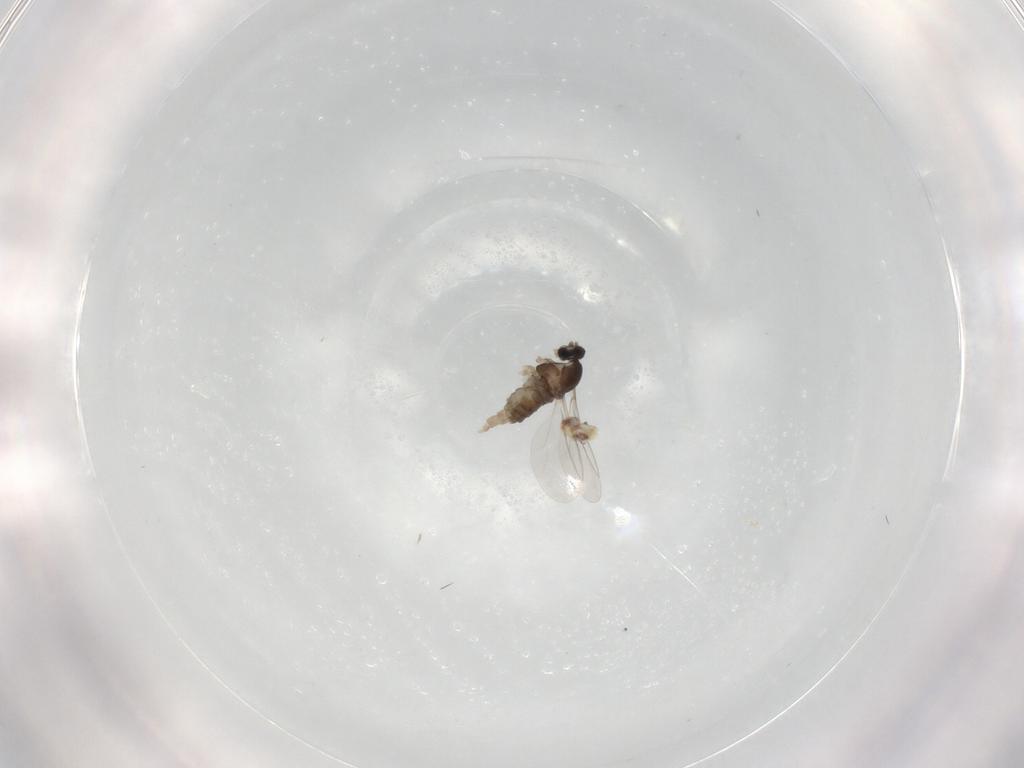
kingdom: Animalia
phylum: Arthropoda
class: Insecta
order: Diptera
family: Cecidomyiidae
